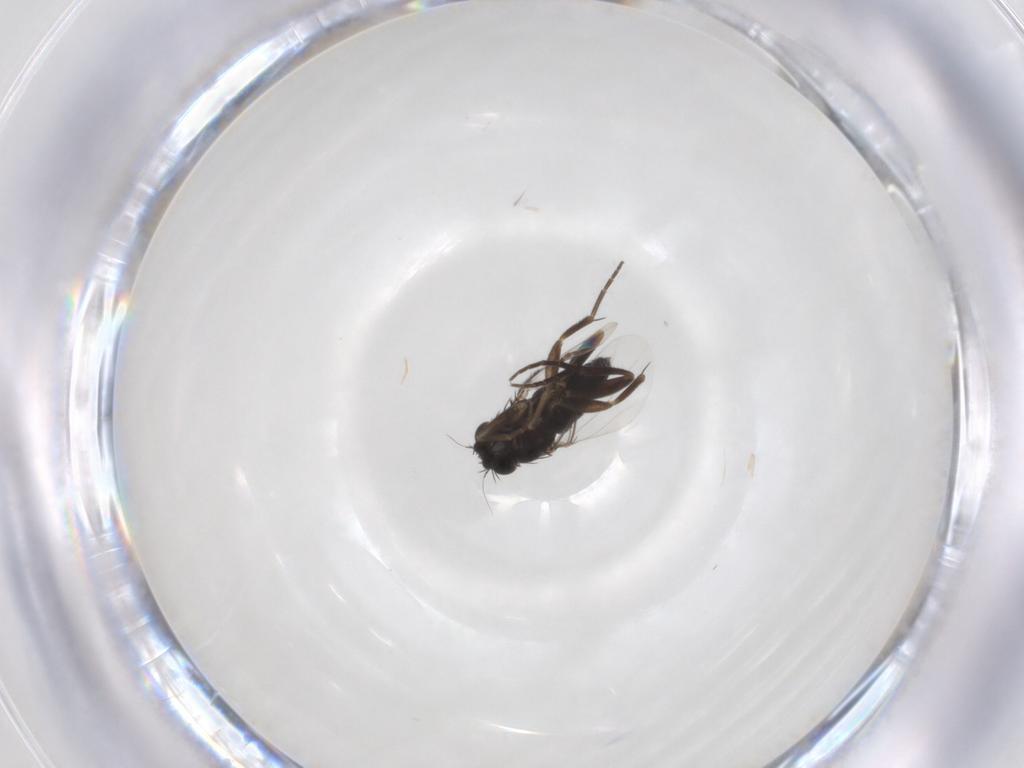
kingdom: Animalia
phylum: Arthropoda
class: Insecta
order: Diptera
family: Phoridae
